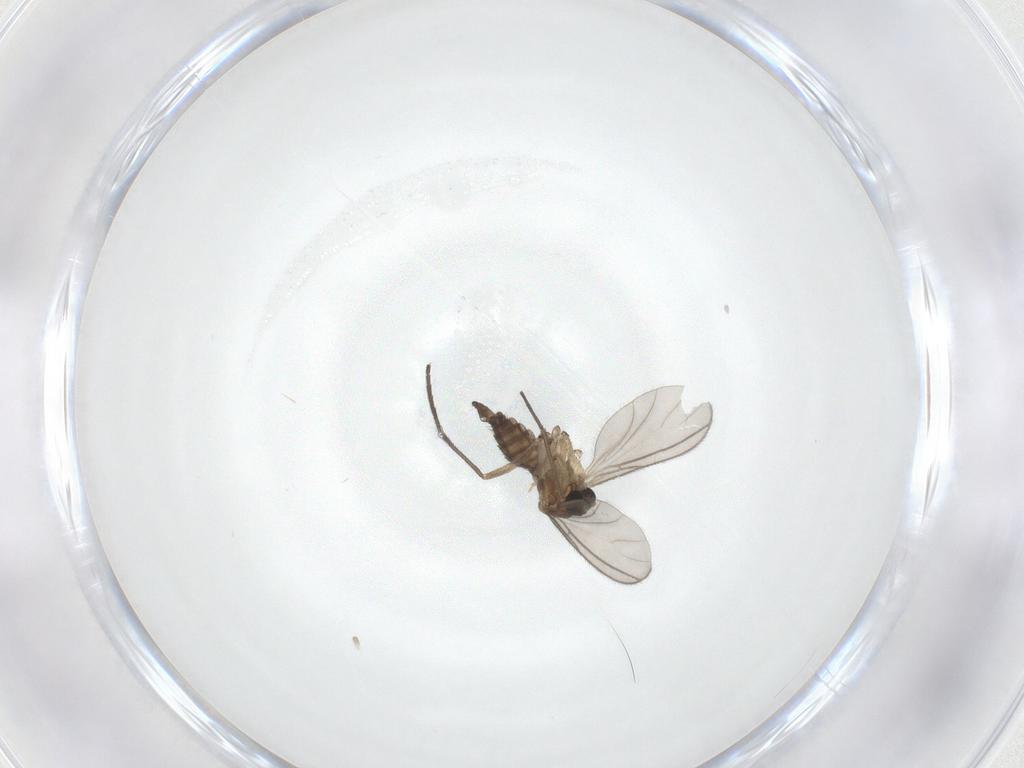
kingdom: Animalia
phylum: Arthropoda
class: Insecta
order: Diptera
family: Sciaridae
